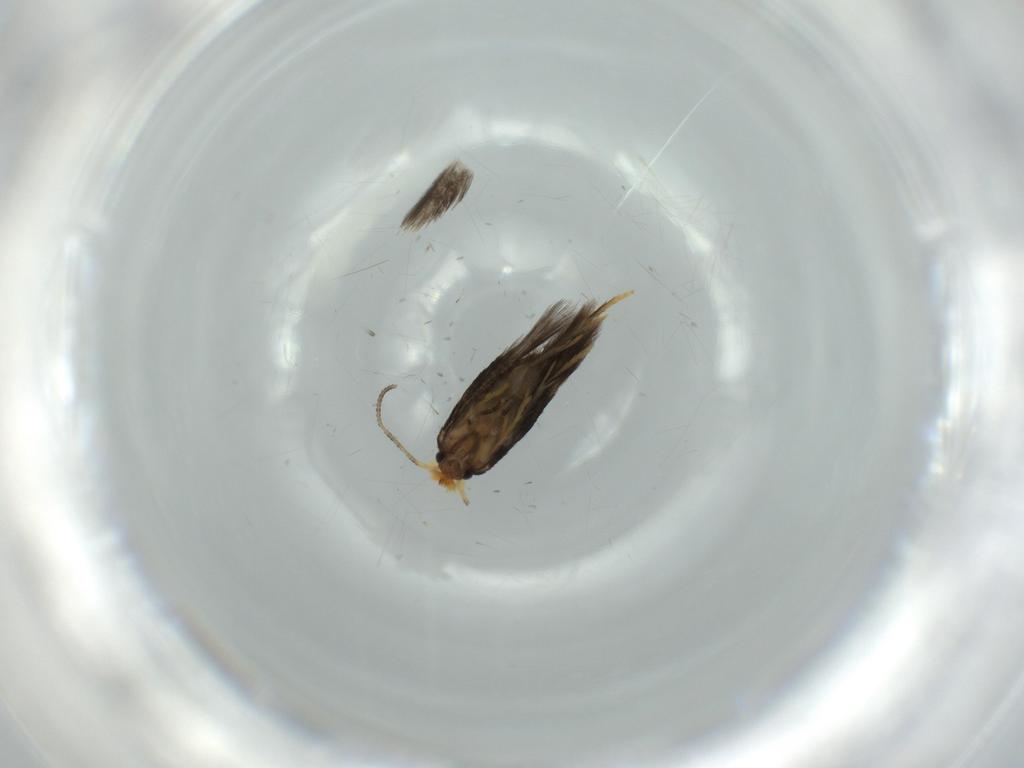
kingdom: Animalia
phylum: Arthropoda
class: Insecta
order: Lepidoptera
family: Nepticulidae
